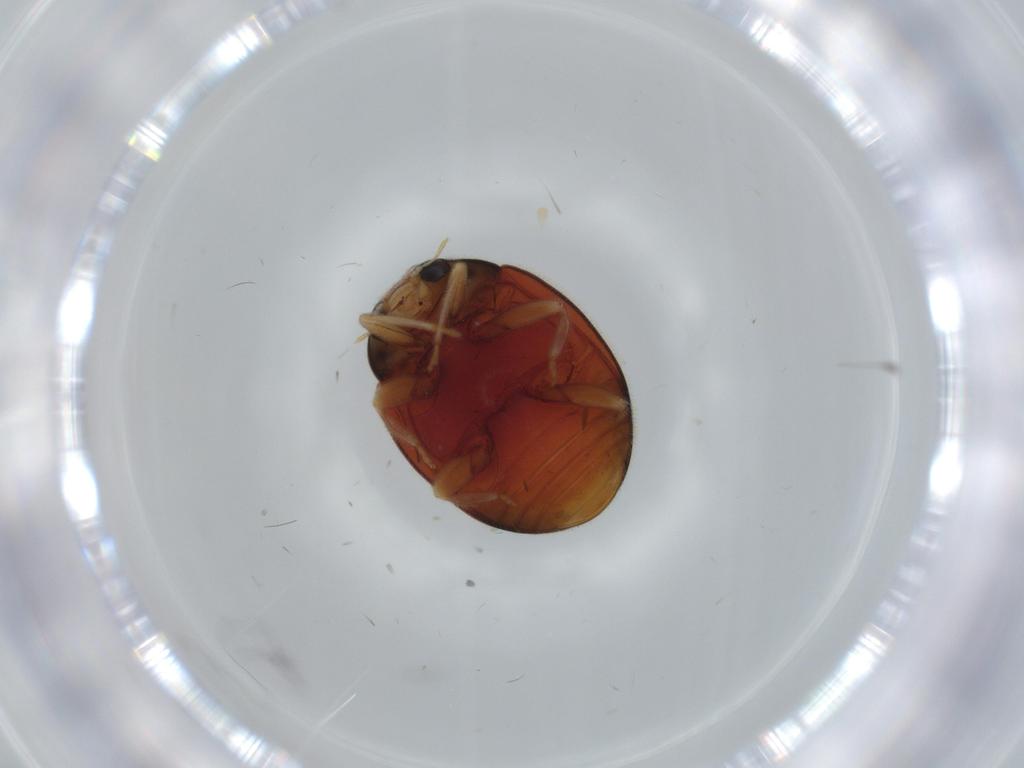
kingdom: Animalia
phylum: Arthropoda
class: Insecta
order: Coleoptera
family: Coccinellidae
